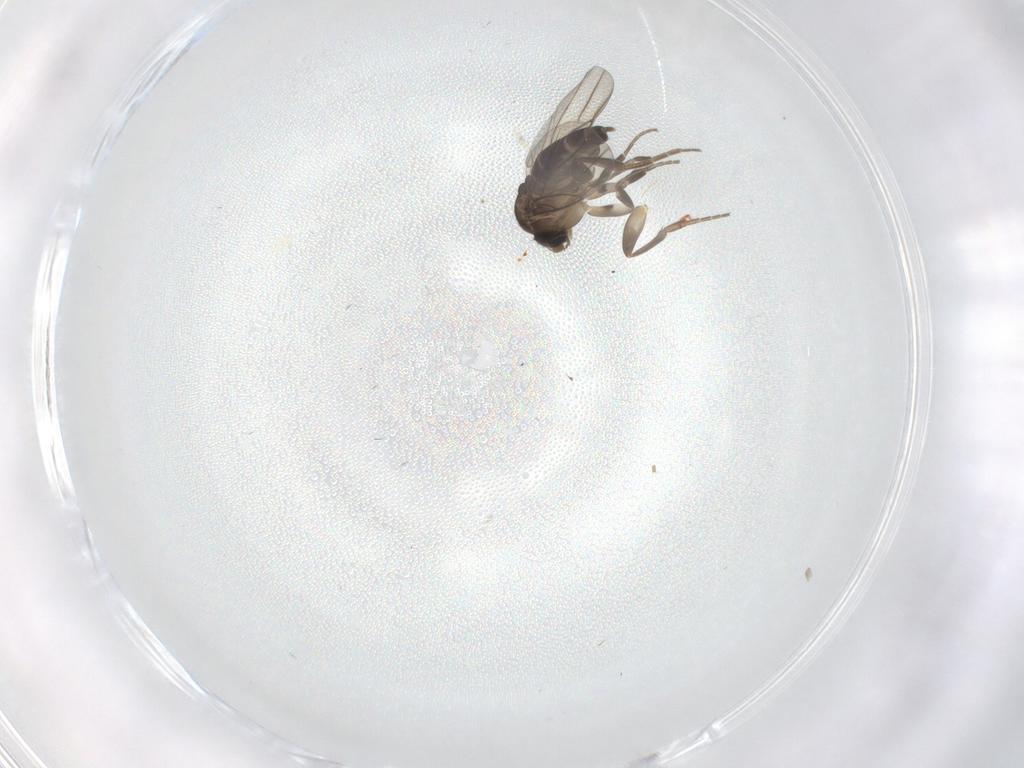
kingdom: Animalia
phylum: Arthropoda
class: Insecta
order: Diptera
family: Phoridae
